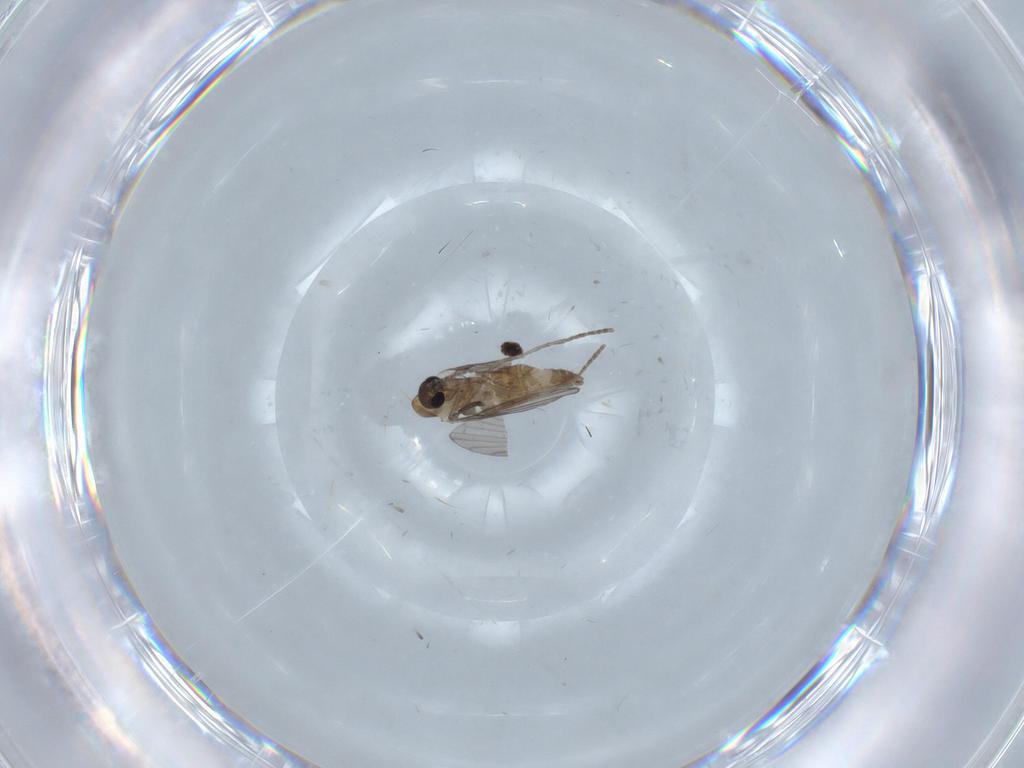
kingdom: Animalia
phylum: Arthropoda
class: Insecta
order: Diptera
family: Psychodidae
